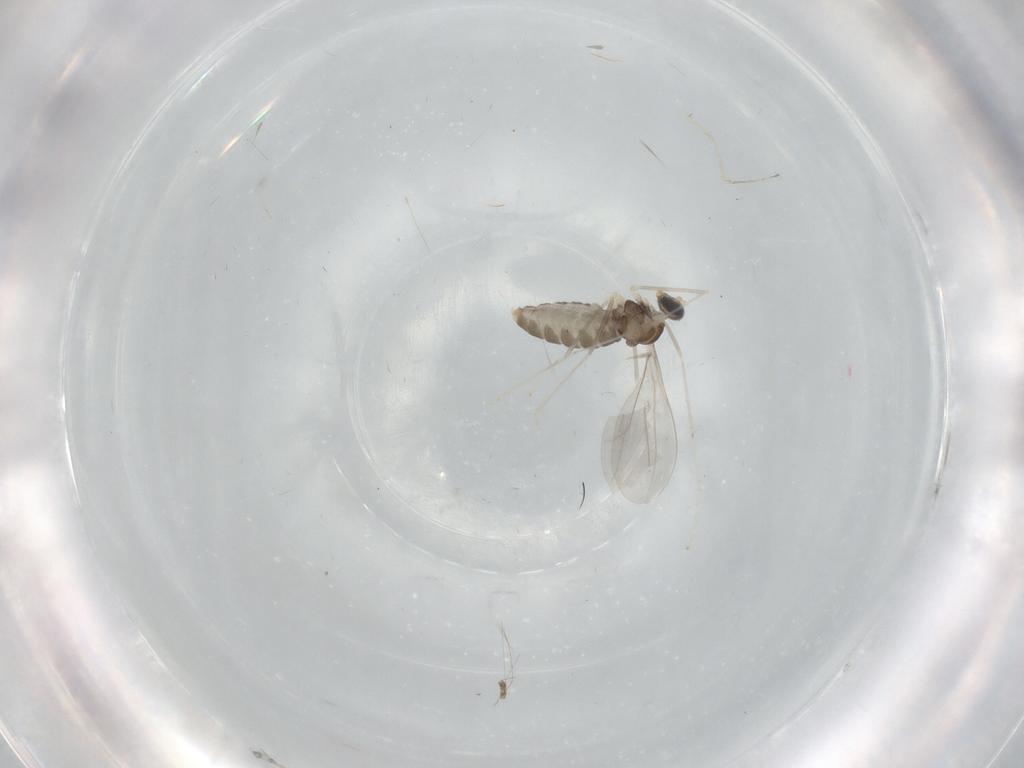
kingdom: Animalia
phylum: Arthropoda
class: Insecta
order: Diptera
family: Cecidomyiidae
